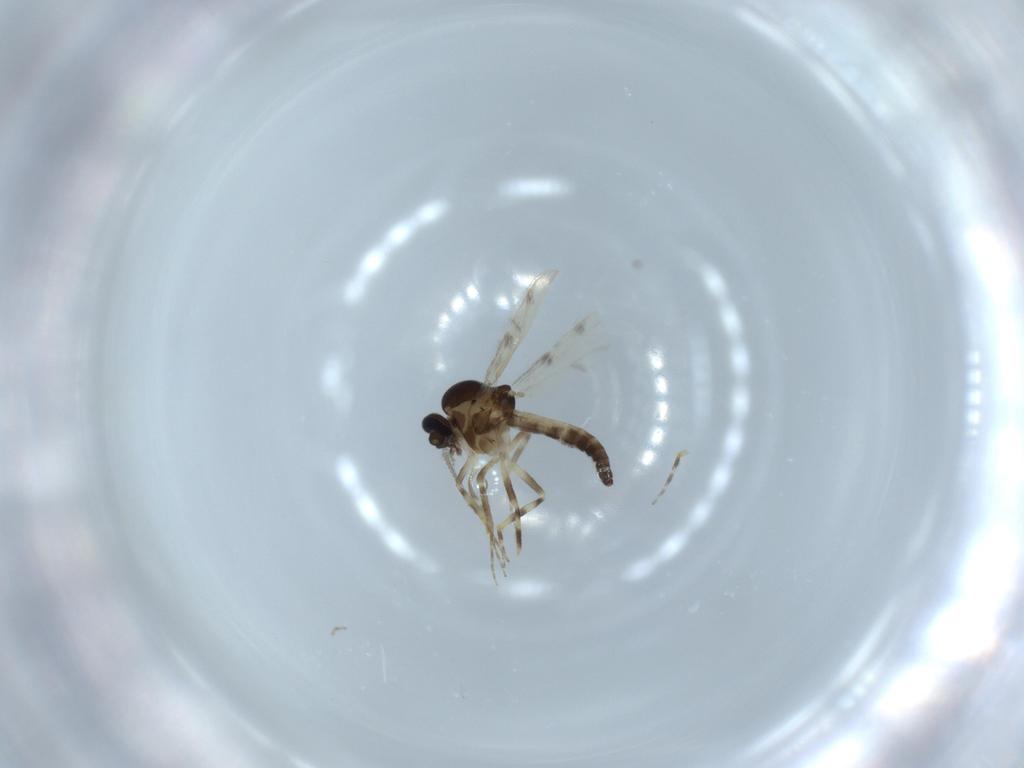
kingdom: Animalia
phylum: Arthropoda
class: Insecta
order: Diptera
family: Ceratopogonidae
